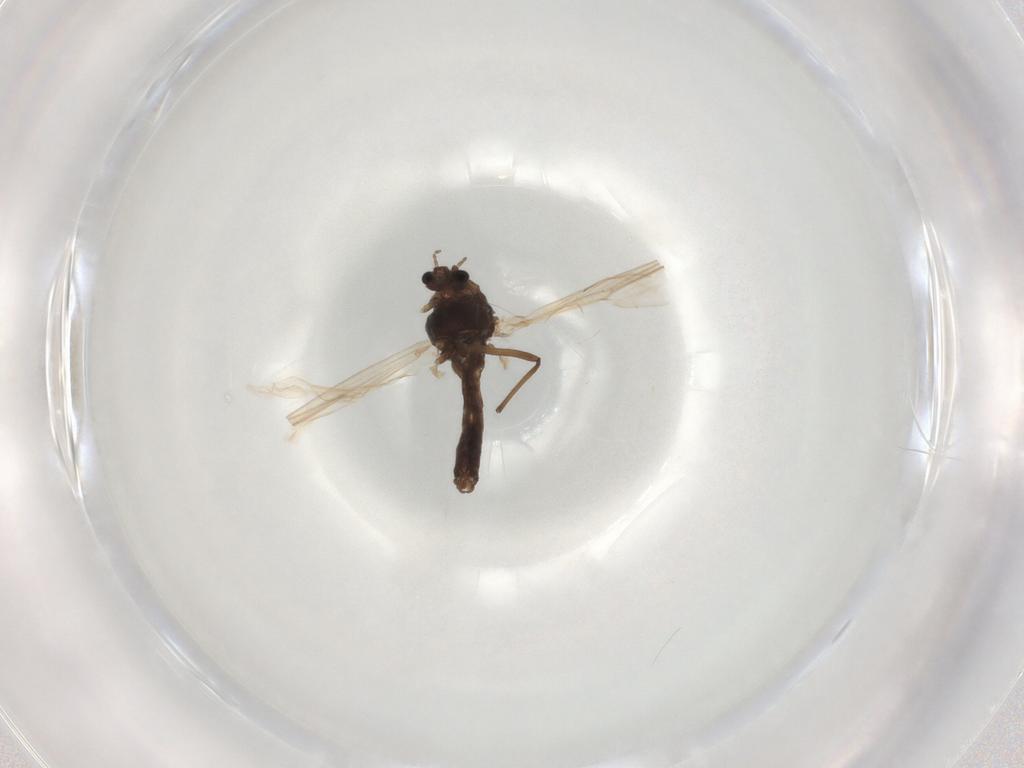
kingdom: Animalia
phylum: Arthropoda
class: Insecta
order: Diptera
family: Chironomidae
